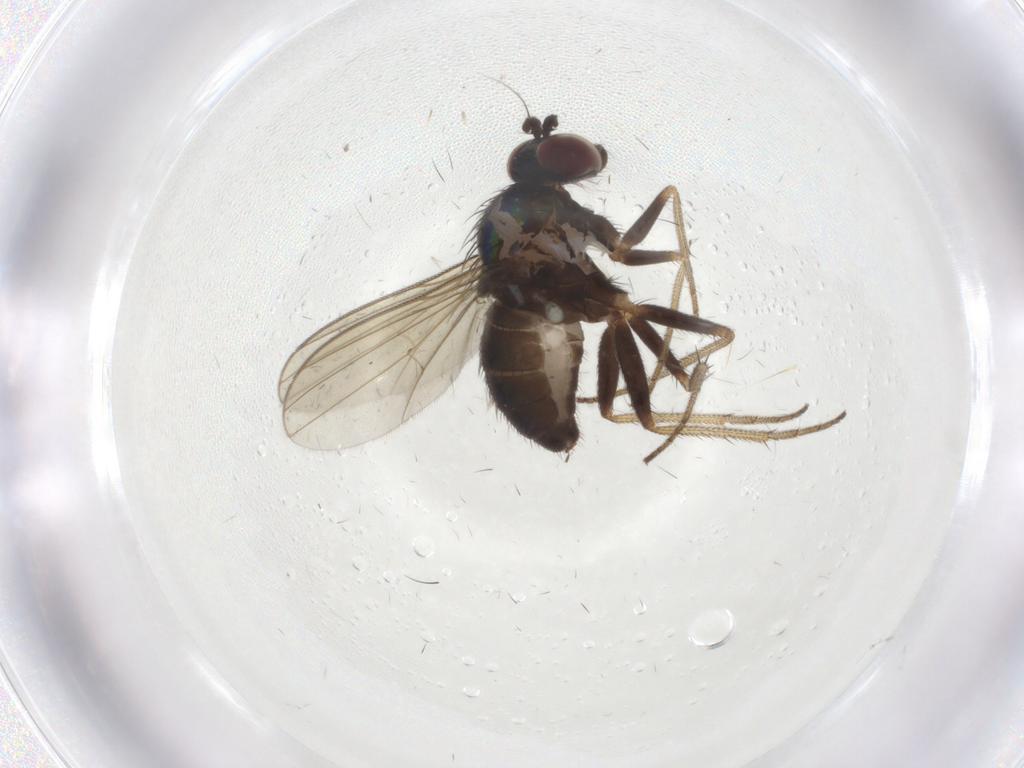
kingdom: Animalia
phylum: Arthropoda
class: Insecta
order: Diptera
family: Dolichopodidae
